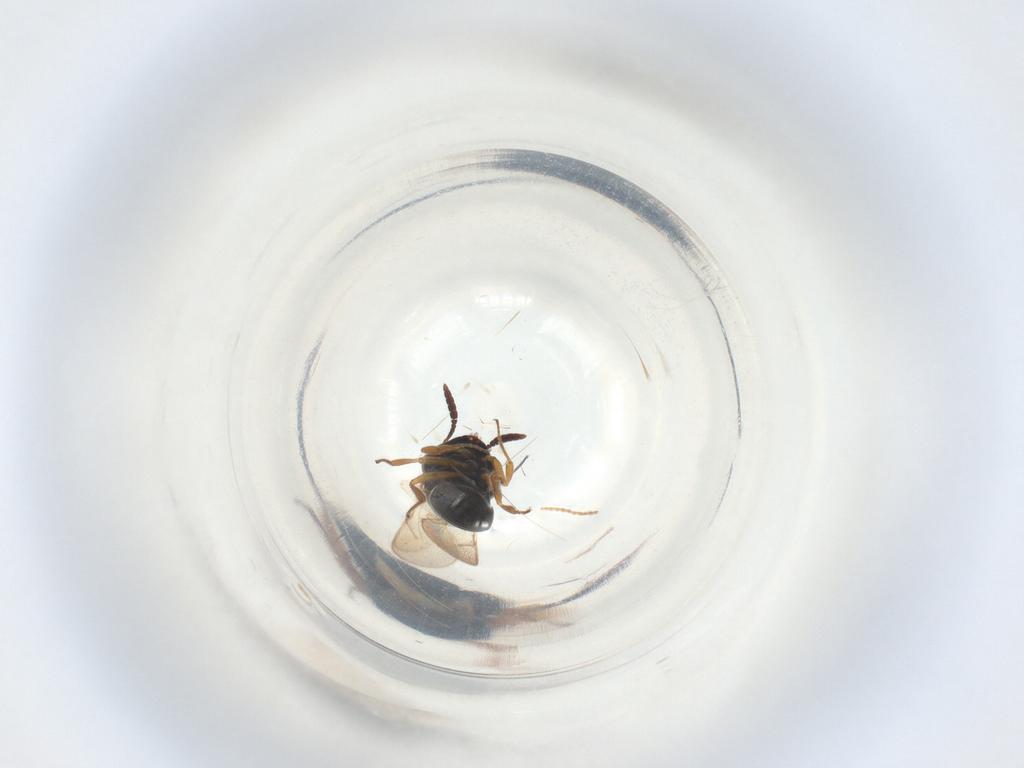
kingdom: Animalia
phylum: Arthropoda
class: Insecta
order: Hymenoptera
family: Scelionidae
